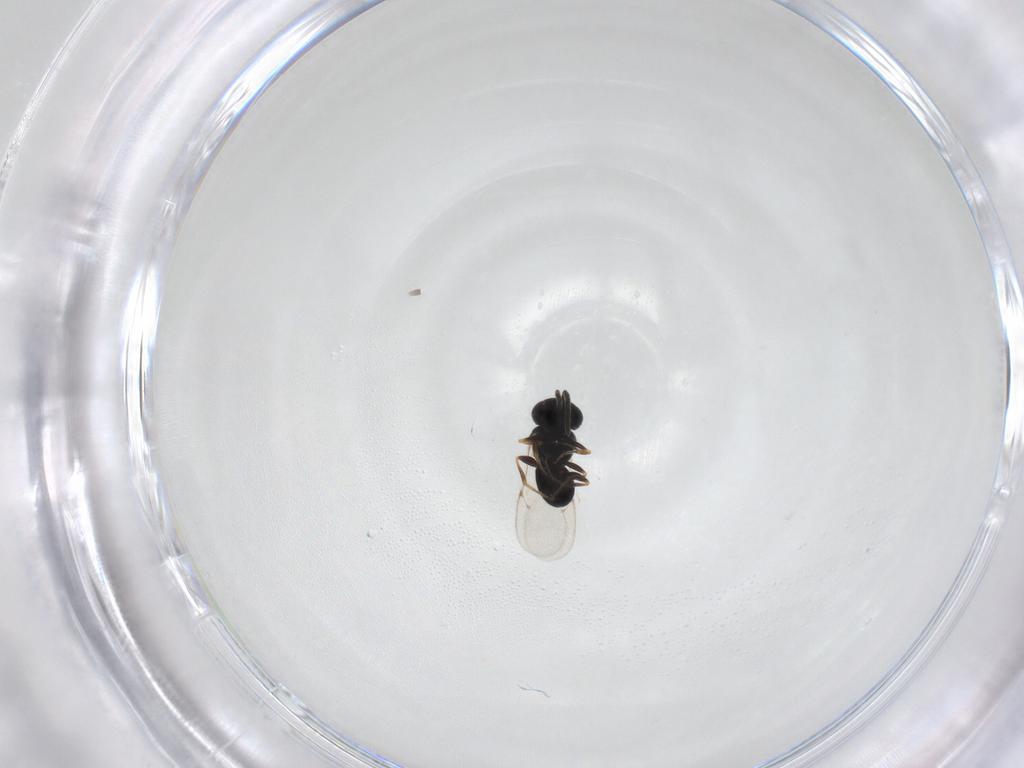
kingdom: Animalia
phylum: Arthropoda
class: Insecta
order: Hymenoptera
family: Scelionidae
